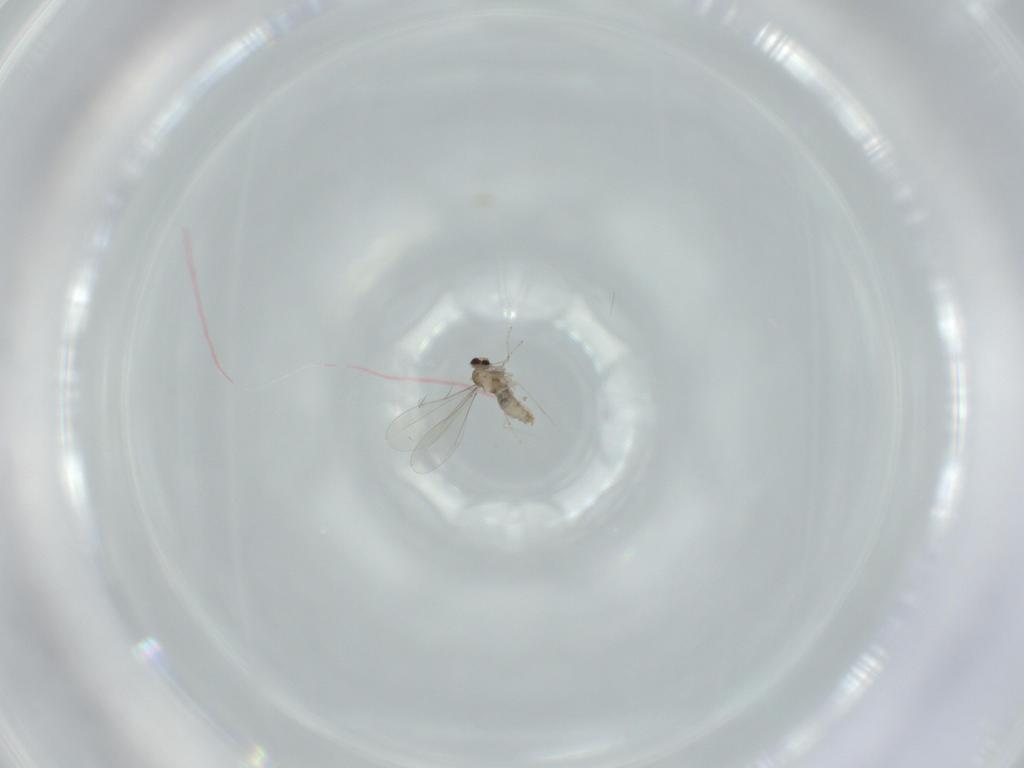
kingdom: Animalia
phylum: Arthropoda
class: Insecta
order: Diptera
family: Cecidomyiidae
